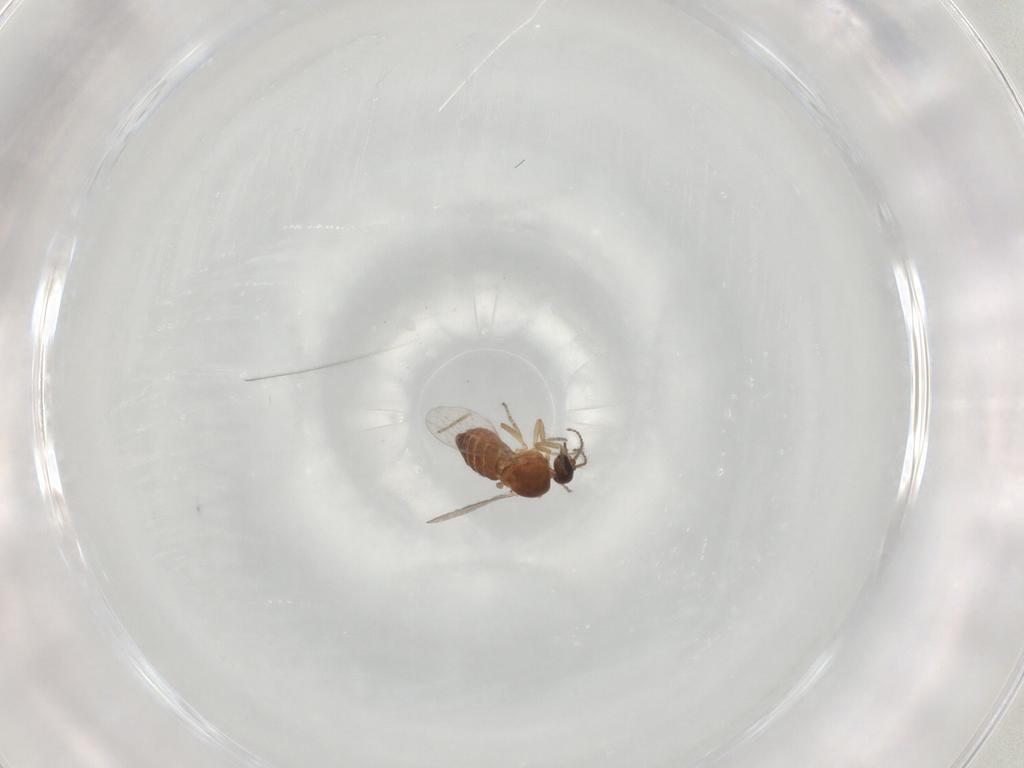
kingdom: Animalia
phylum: Arthropoda
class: Insecta
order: Diptera
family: Ceratopogonidae
